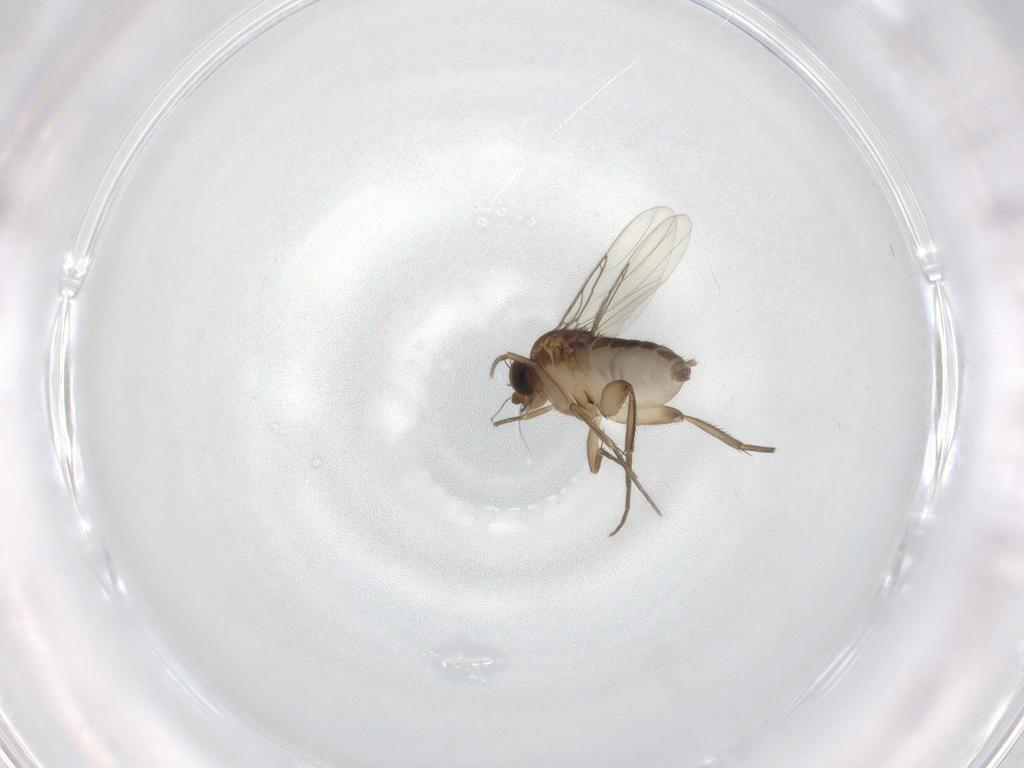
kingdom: Animalia
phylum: Arthropoda
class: Insecta
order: Diptera
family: Phoridae
